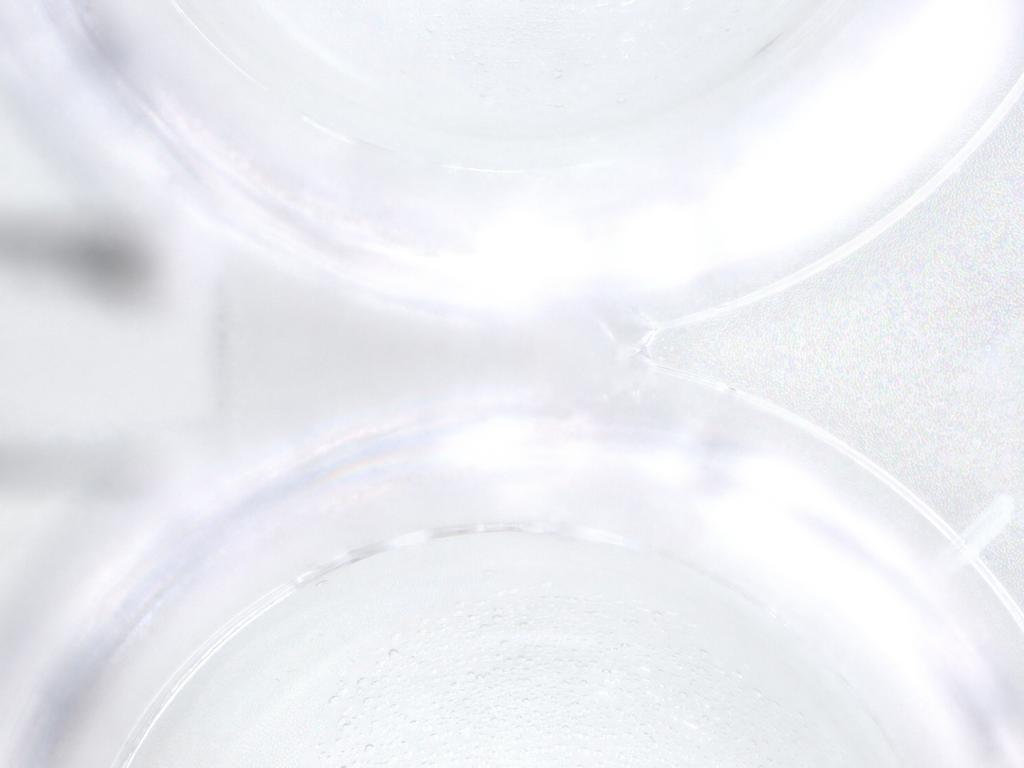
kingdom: Animalia
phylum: Arthropoda
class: Insecta
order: Diptera
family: Cecidomyiidae
